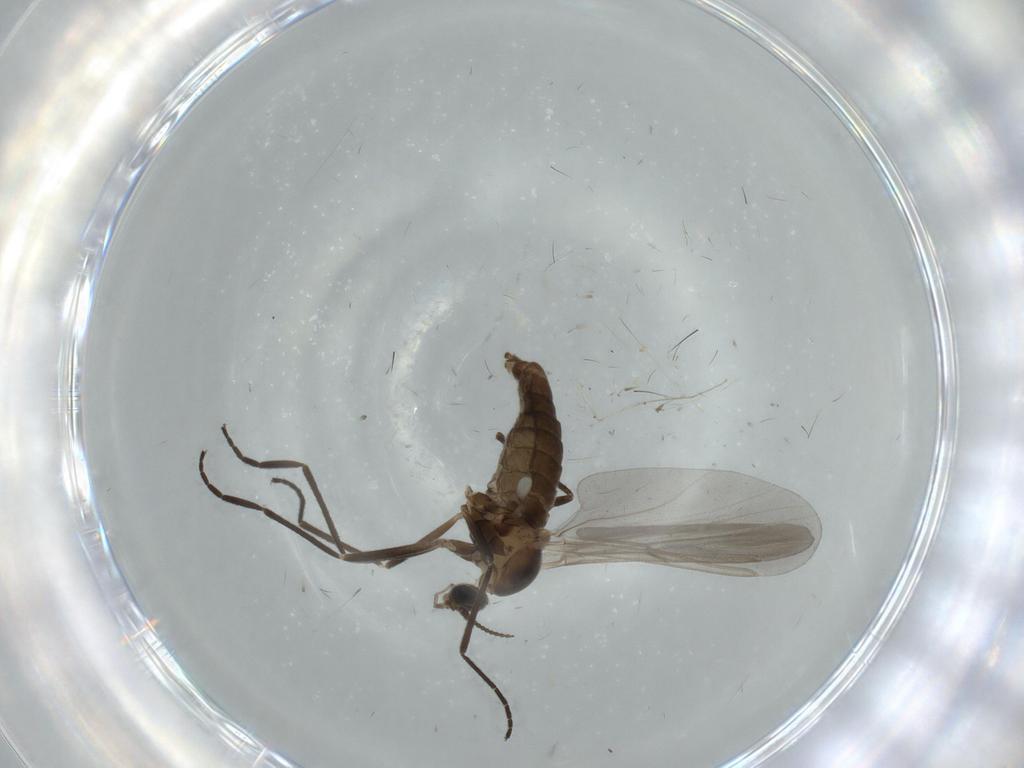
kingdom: Animalia
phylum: Arthropoda
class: Insecta
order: Diptera
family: Cecidomyiidae
